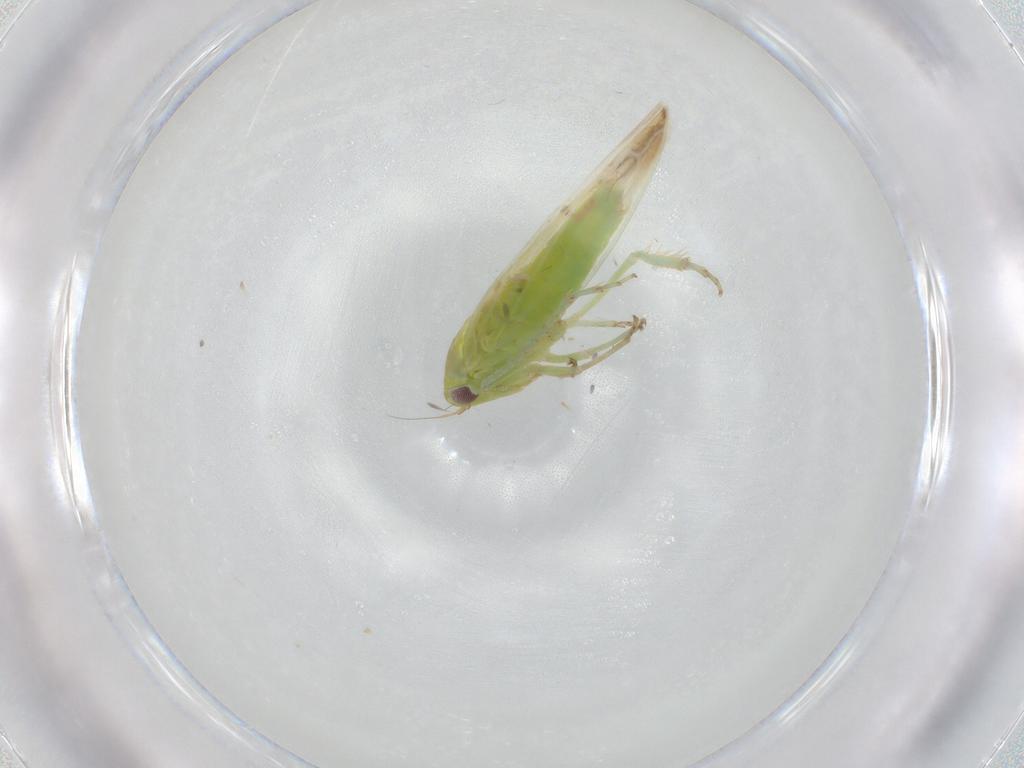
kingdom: Animalia
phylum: Arthropoda
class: Insecta
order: Hemiptera
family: Aleyrodidae
